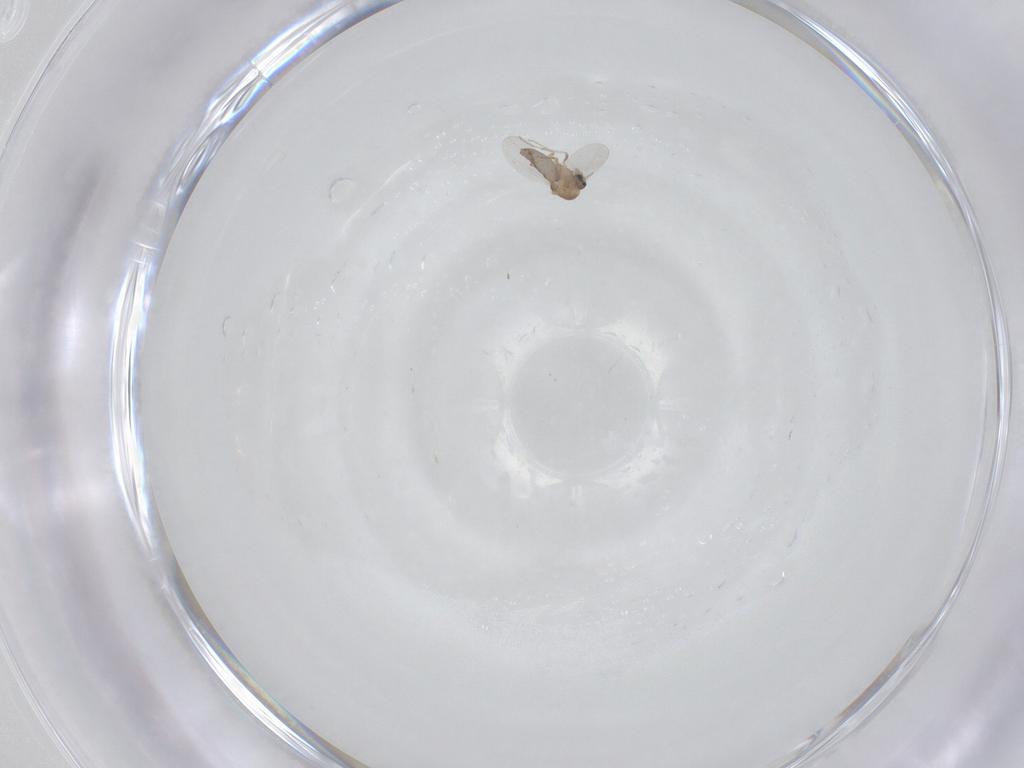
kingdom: Animalia
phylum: Arthropoda
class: Insecta
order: Diptera
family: Ceratopogonidae
